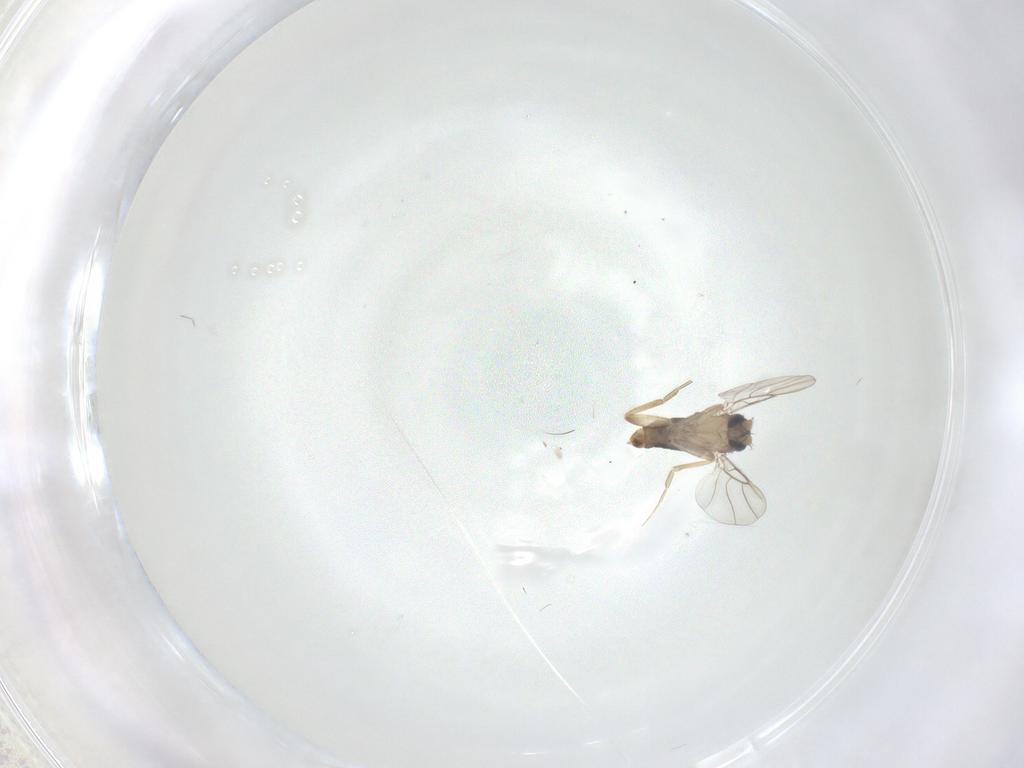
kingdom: Animalia
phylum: Arthropoda
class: Insecta
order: Diptera
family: Phoridae
